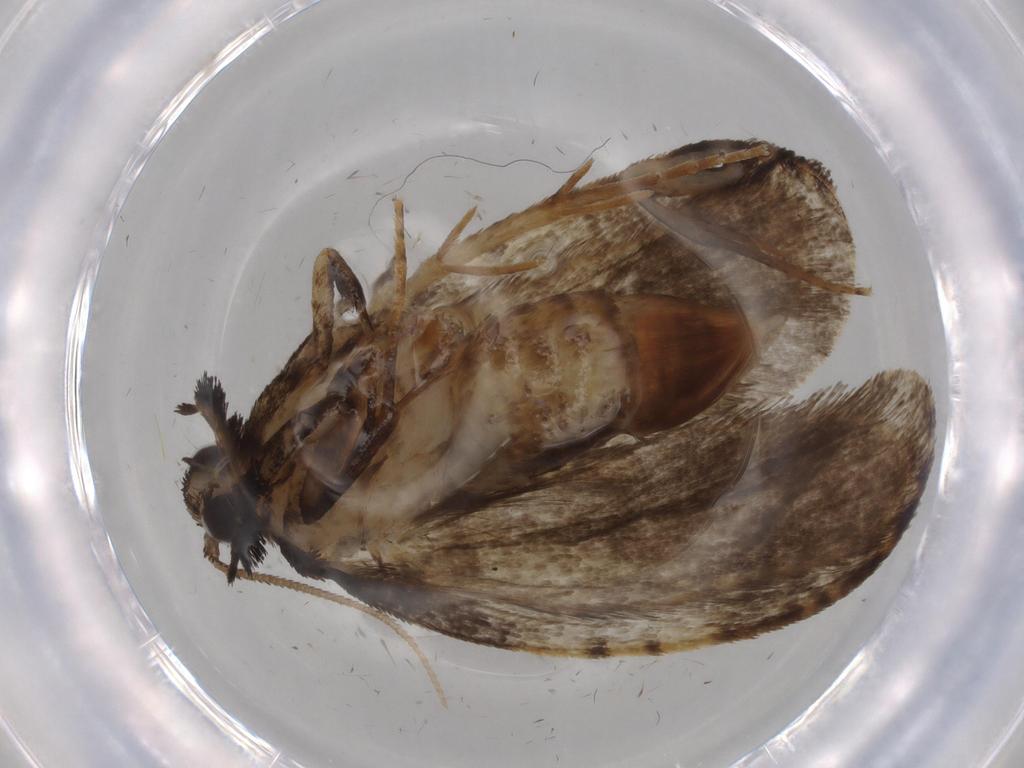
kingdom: Animalia
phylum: Arthropoda
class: Insecta
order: Lepidoptera
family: Psychidae
